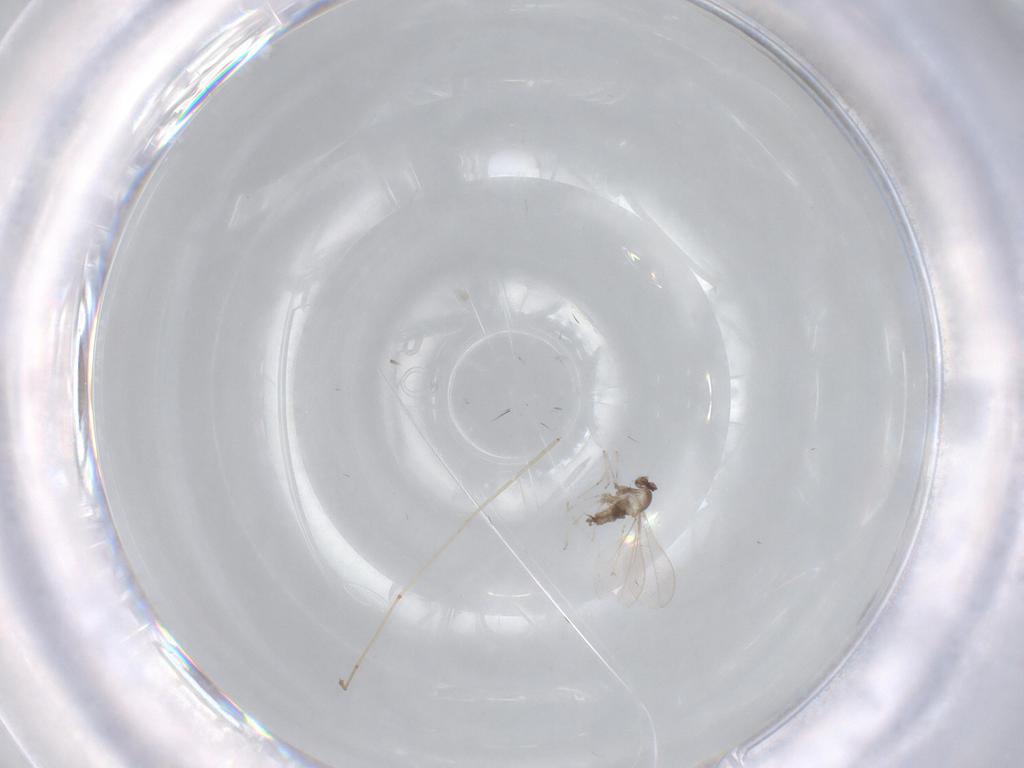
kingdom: Animalia
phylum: Arthropoda
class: Insecta
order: Diptera
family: Cecidomyiidae
